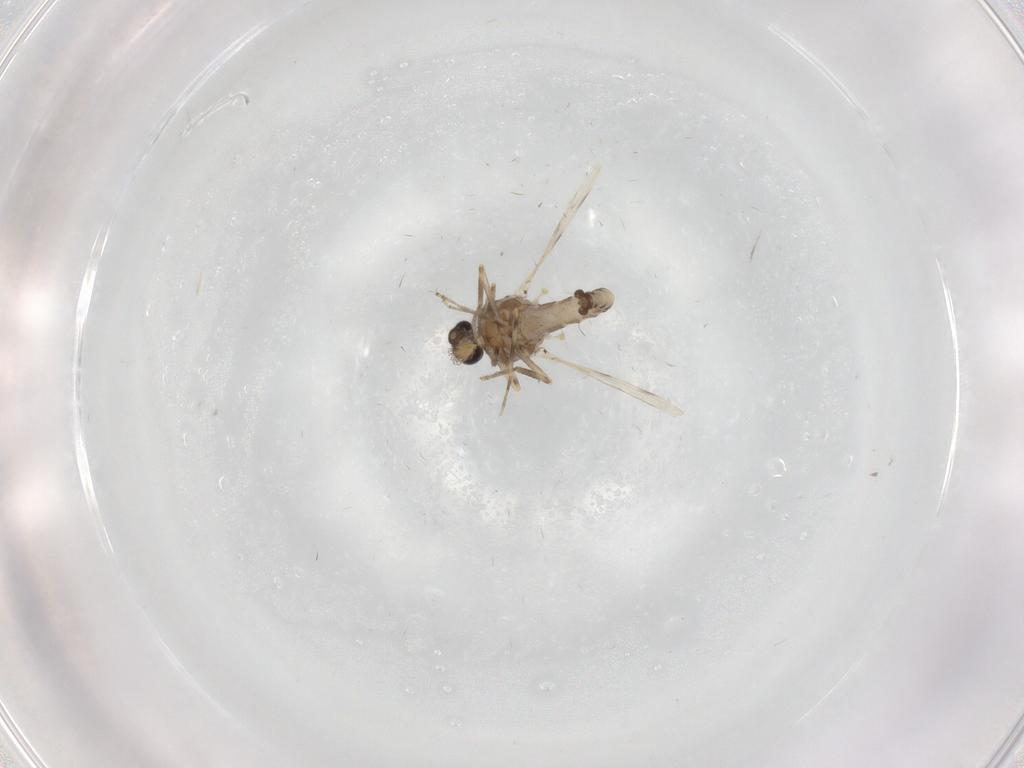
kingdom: Animalia
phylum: Arthropoda
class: Insecta
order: Diptera
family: Ceratopogonidae
